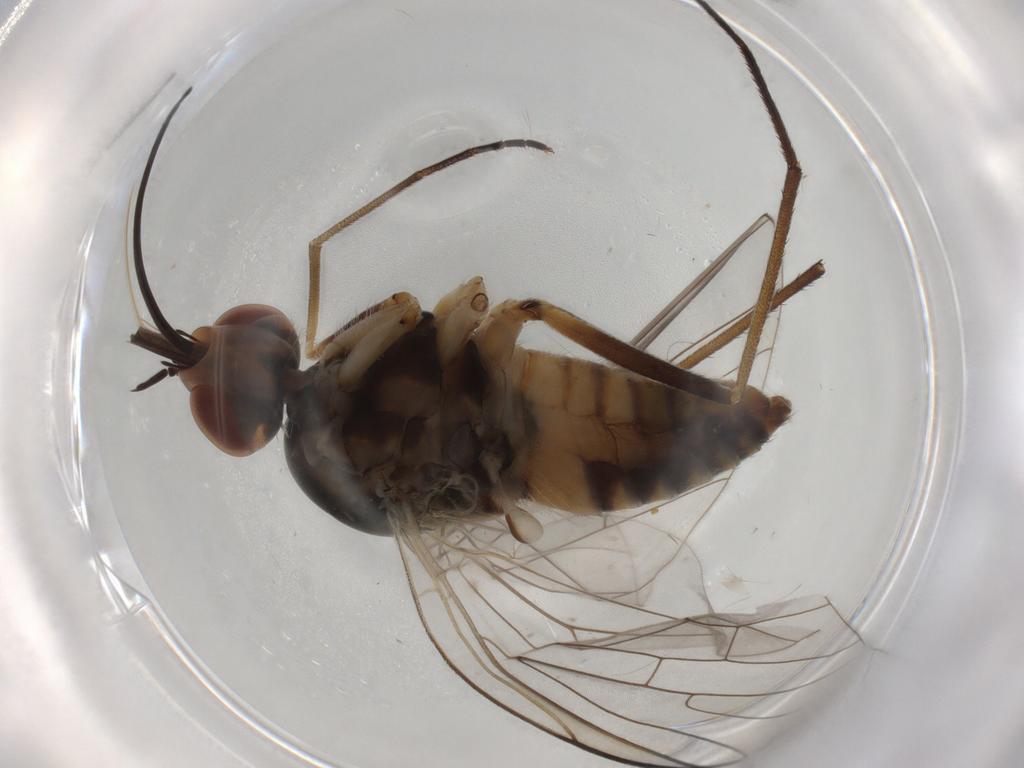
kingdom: Animalia
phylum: Arthropoda
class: Insecta
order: Diptera
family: Bombyliidae
